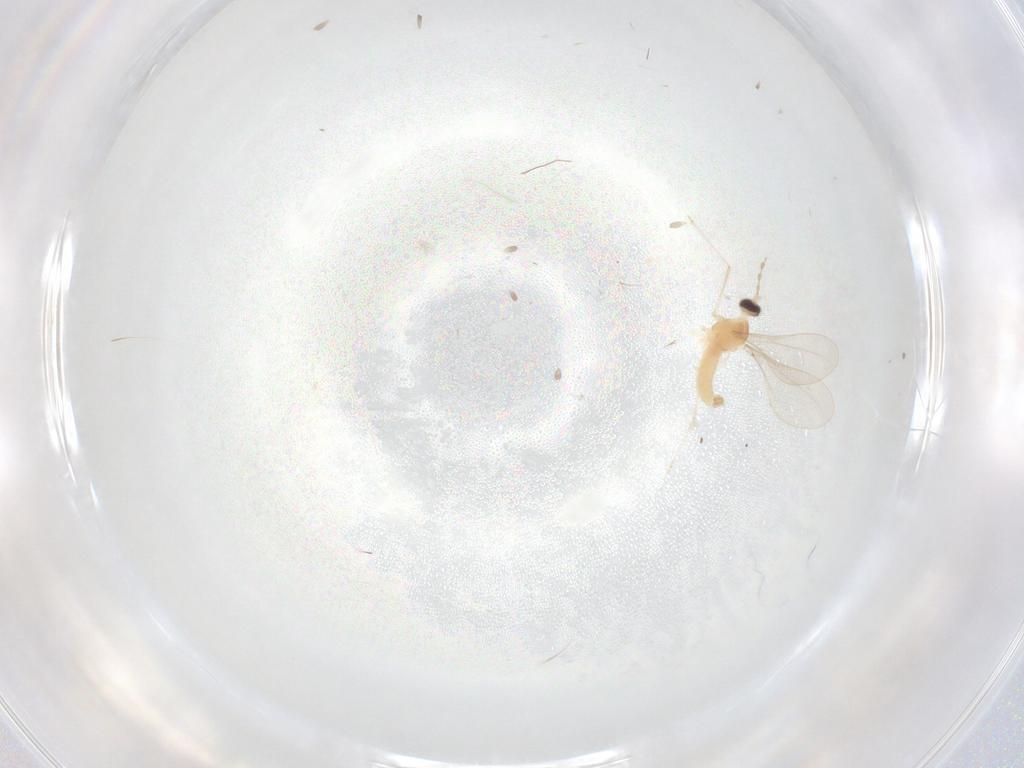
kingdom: Animalia
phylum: Arthropoda
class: Insecta
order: Diptera
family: Cecidomyiidae
